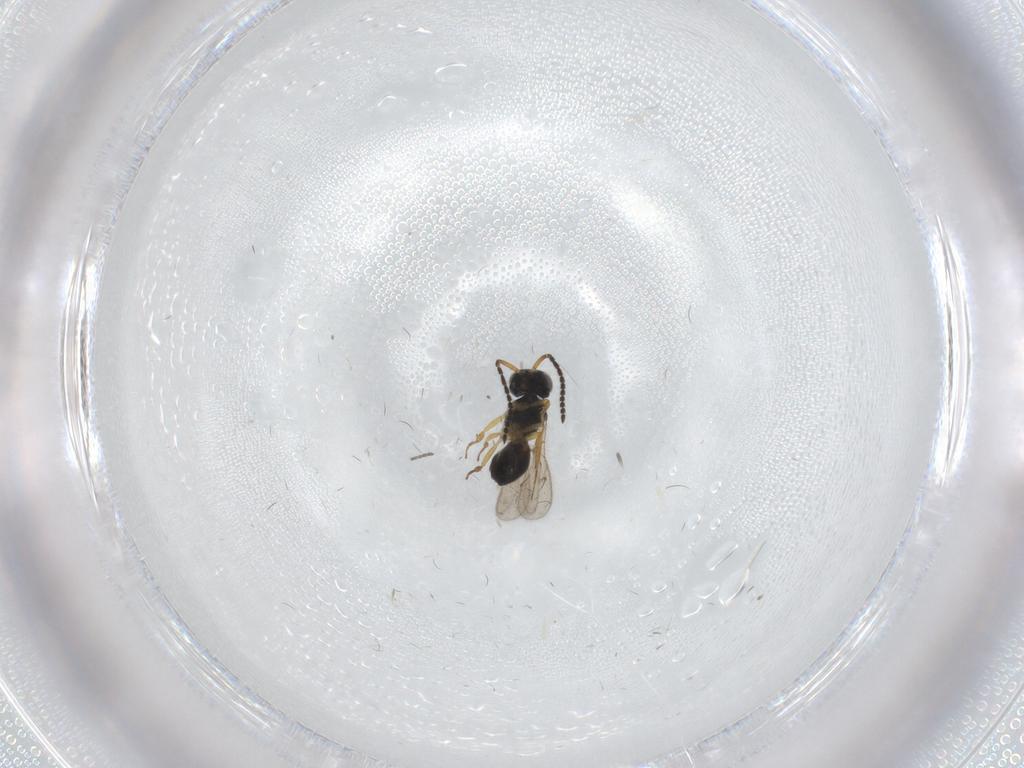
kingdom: Animalia
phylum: Arthropoda
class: Insecta
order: Hymenoptera
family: Scelionidae
